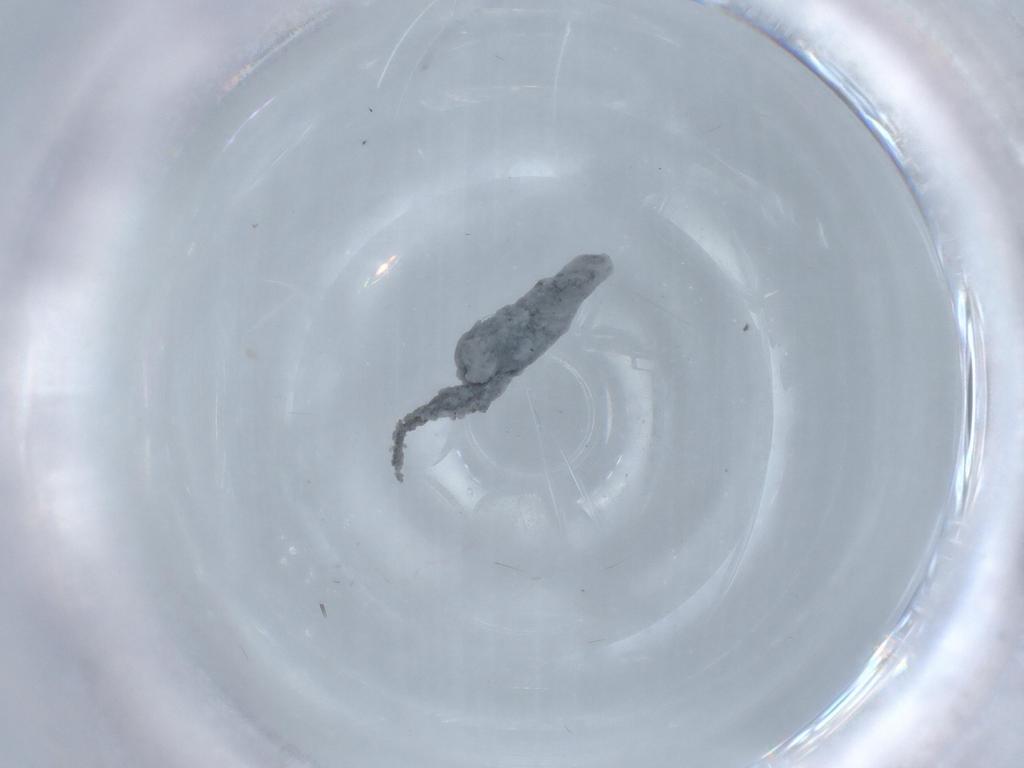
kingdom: Animalia
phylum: Arthropoda
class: Insecta
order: Diptera
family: Cecidomyiidae
